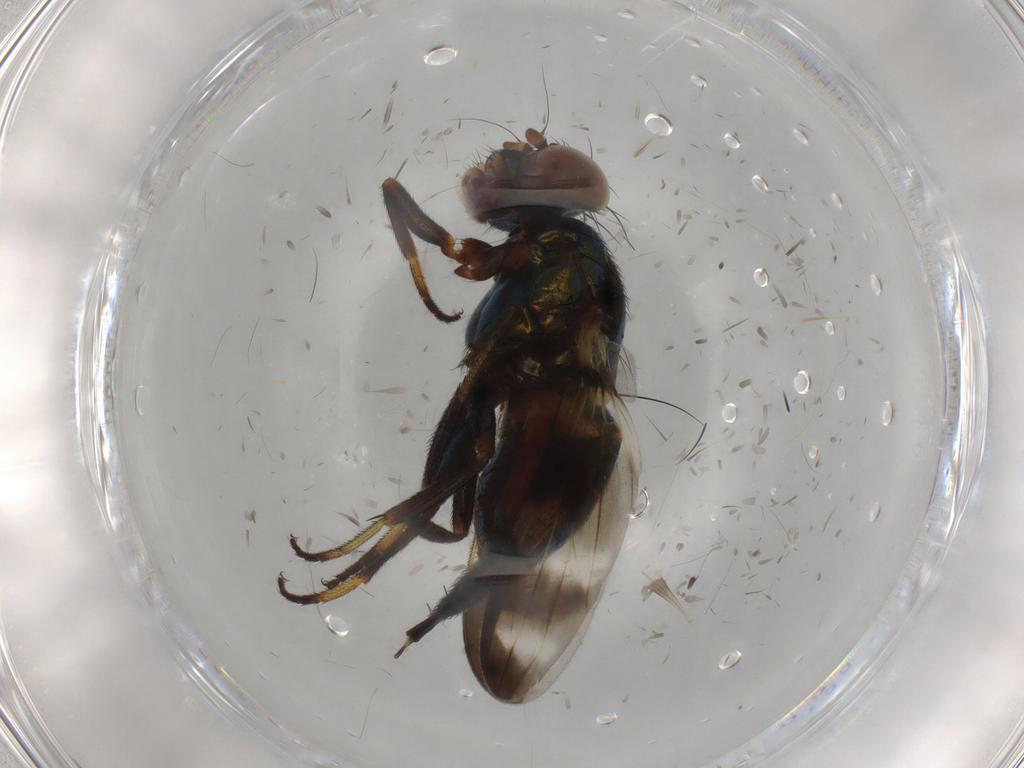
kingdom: Animalia
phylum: Arthropoda
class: Insecta
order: Diptera
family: Ulidiidae
